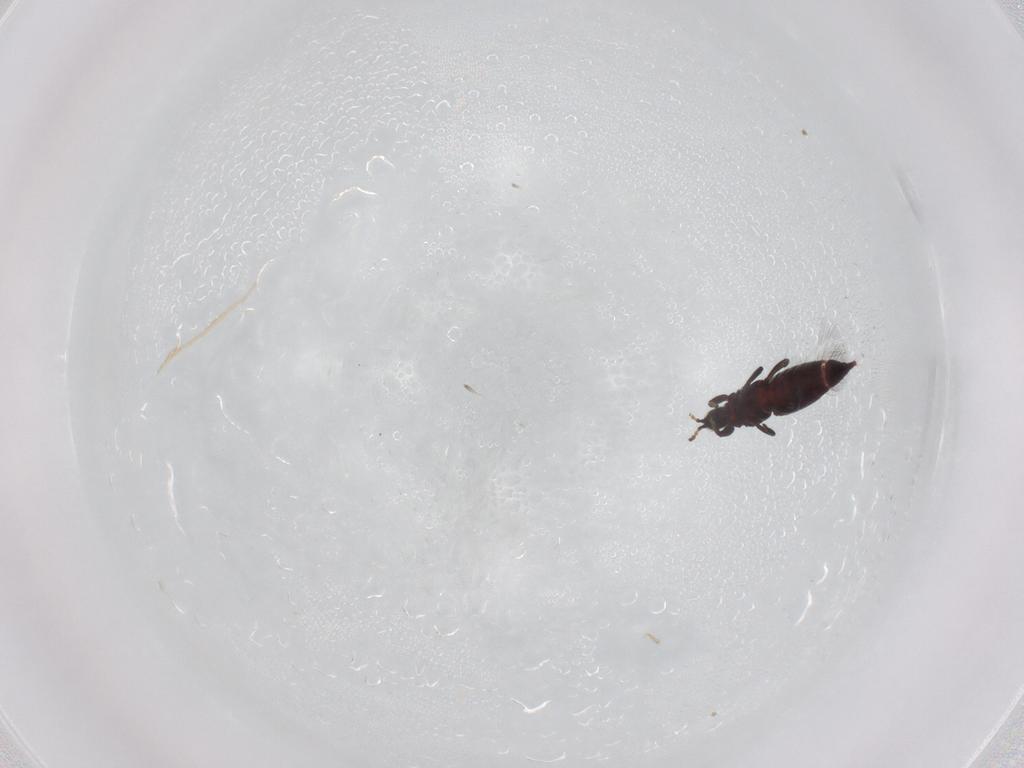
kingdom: Animalia
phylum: Arthropoda
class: Insecta
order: Thysanoptera
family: Phlaeothripidae
